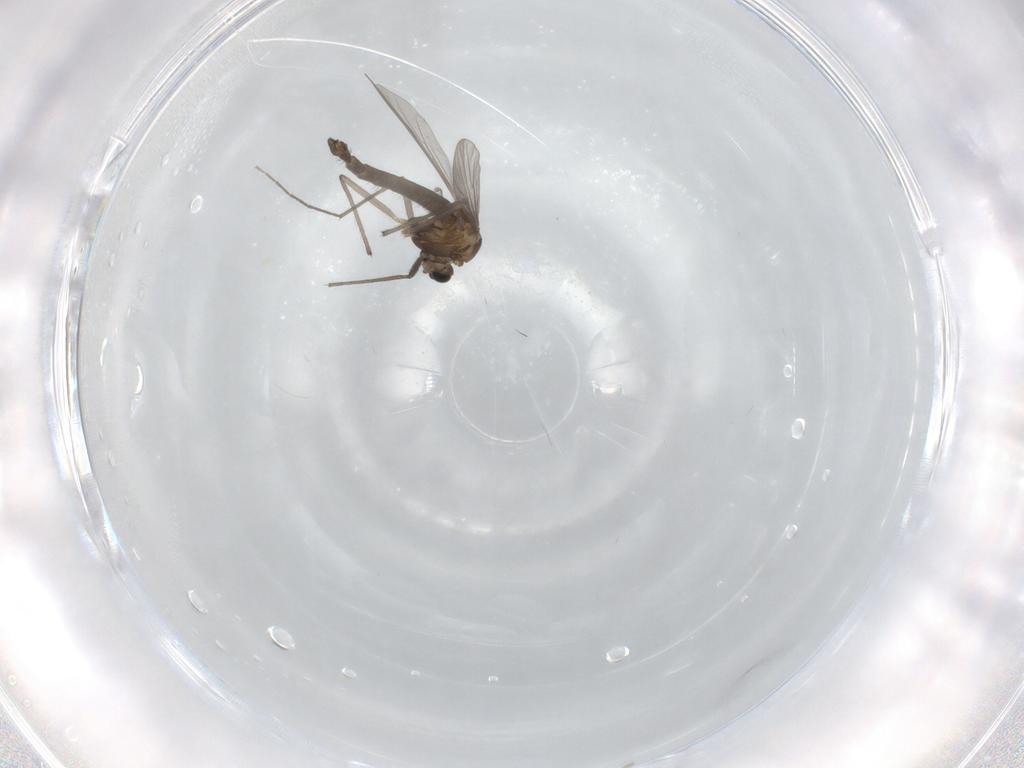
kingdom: Animalia
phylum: Arthropoda
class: Insecta
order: Diptera
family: Chironomidae
